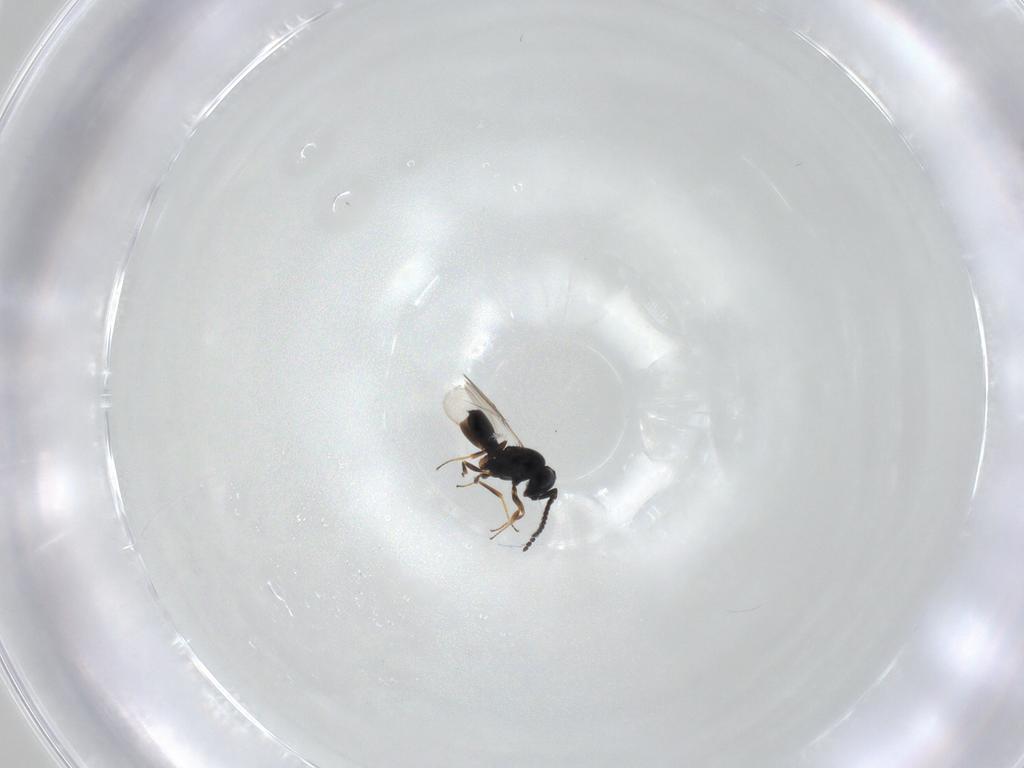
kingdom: Animalia
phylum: Arthropoda
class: Insecta
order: Hymenoptera
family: Scelionidae
